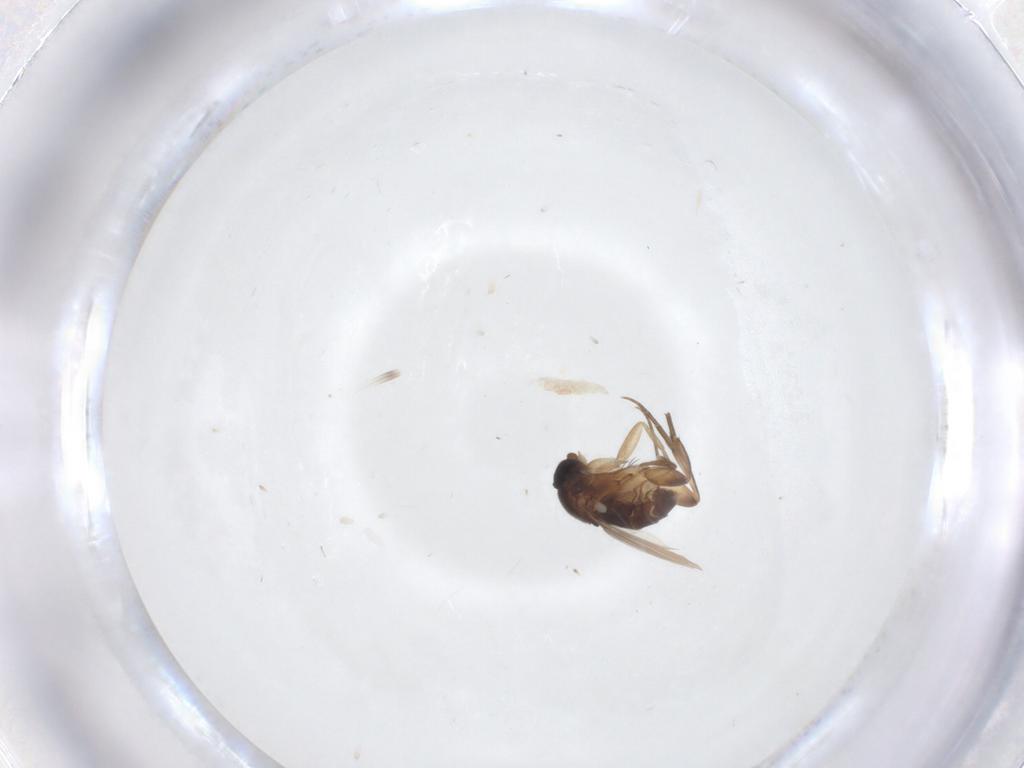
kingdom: Animalia
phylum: Arthropoda
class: Insecta
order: Diptera
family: Phoridae
